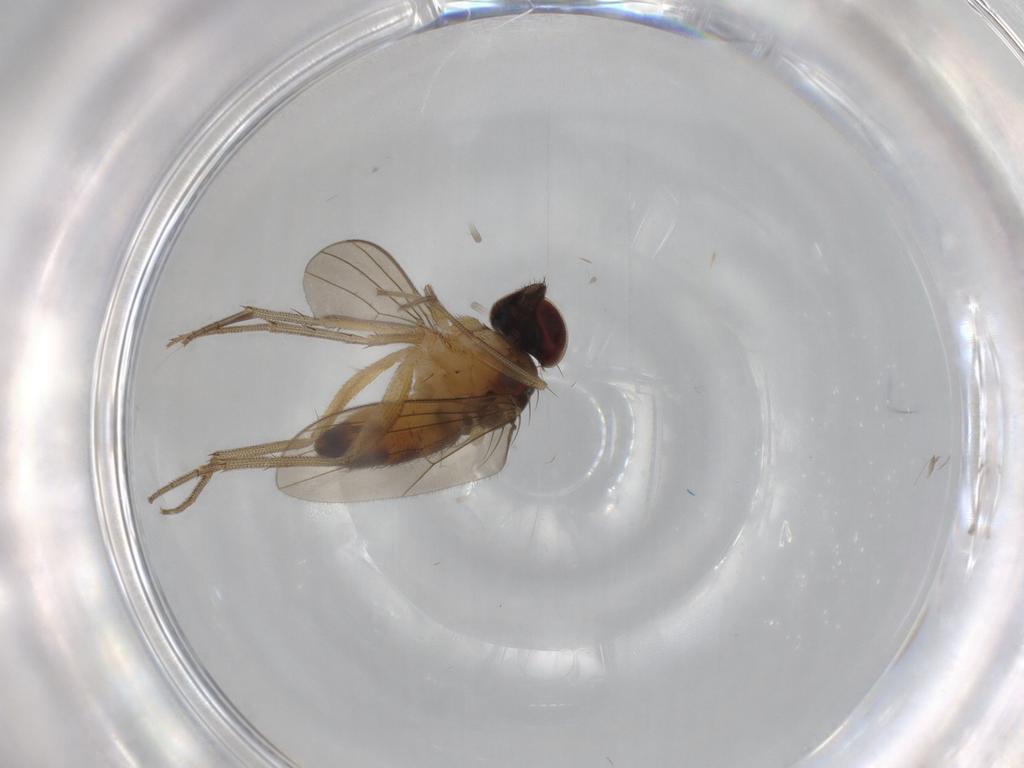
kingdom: Animalia
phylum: Arthropoda
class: Insecta
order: Diptera
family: Dolichopodidae
